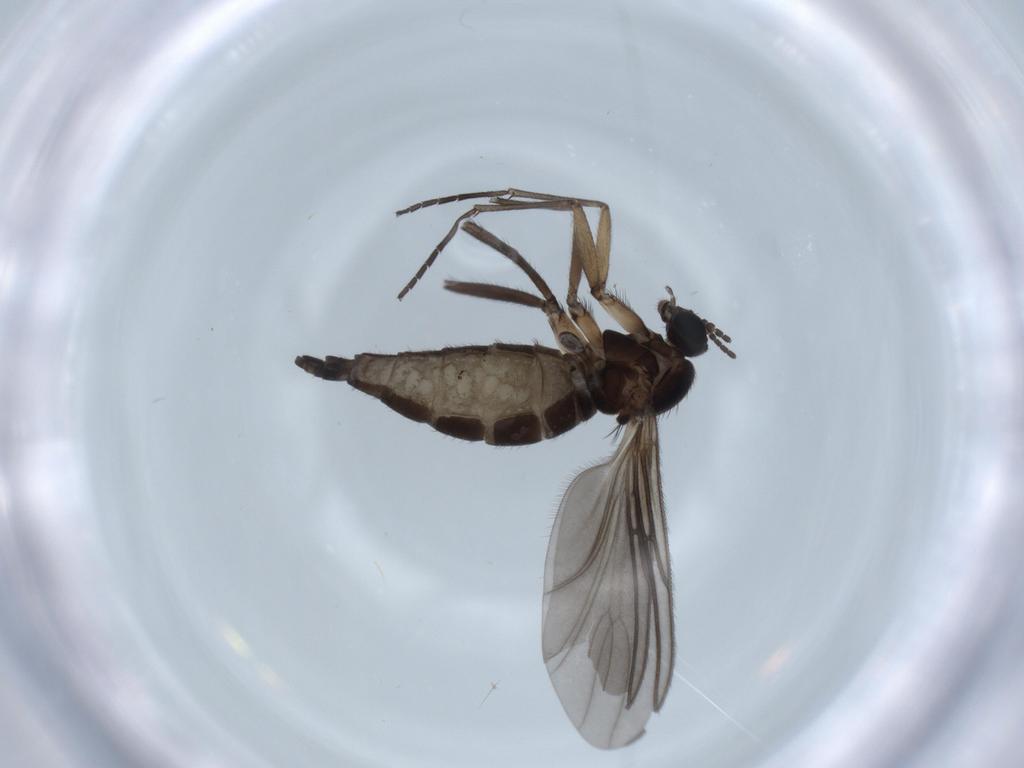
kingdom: Animalia
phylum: Arthropoda
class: Insecta
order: Diptera
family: Sciaridae
